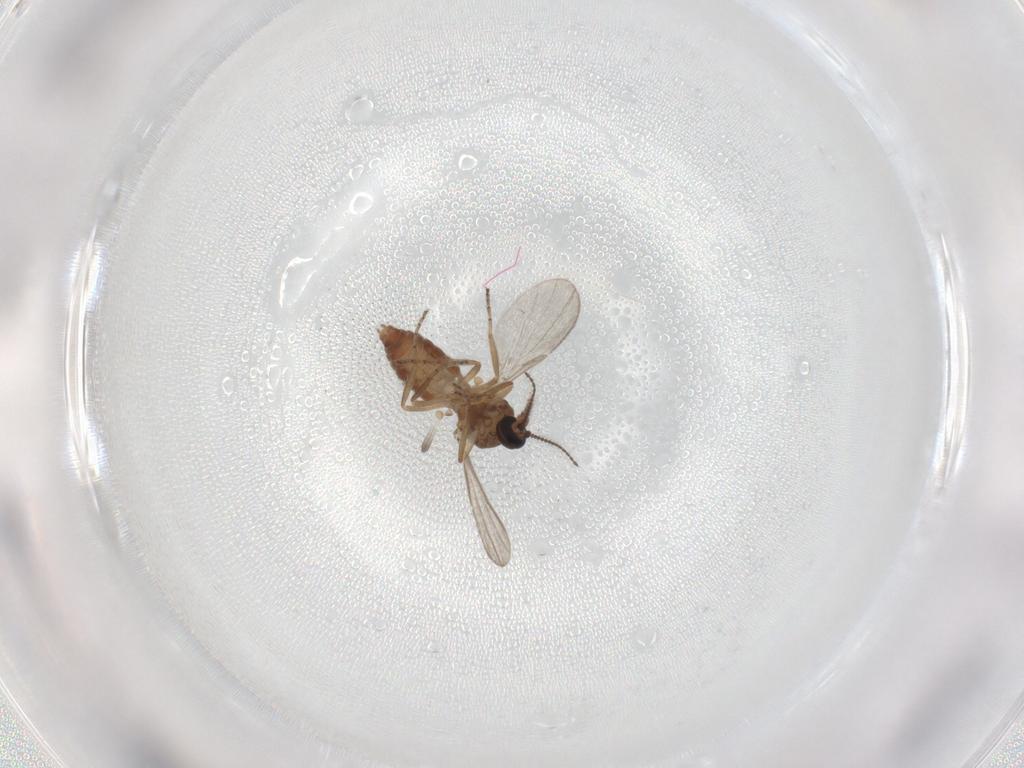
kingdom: Animalia
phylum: Arthropoda
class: Insecta
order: Diptera
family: Ceratopogonidae
